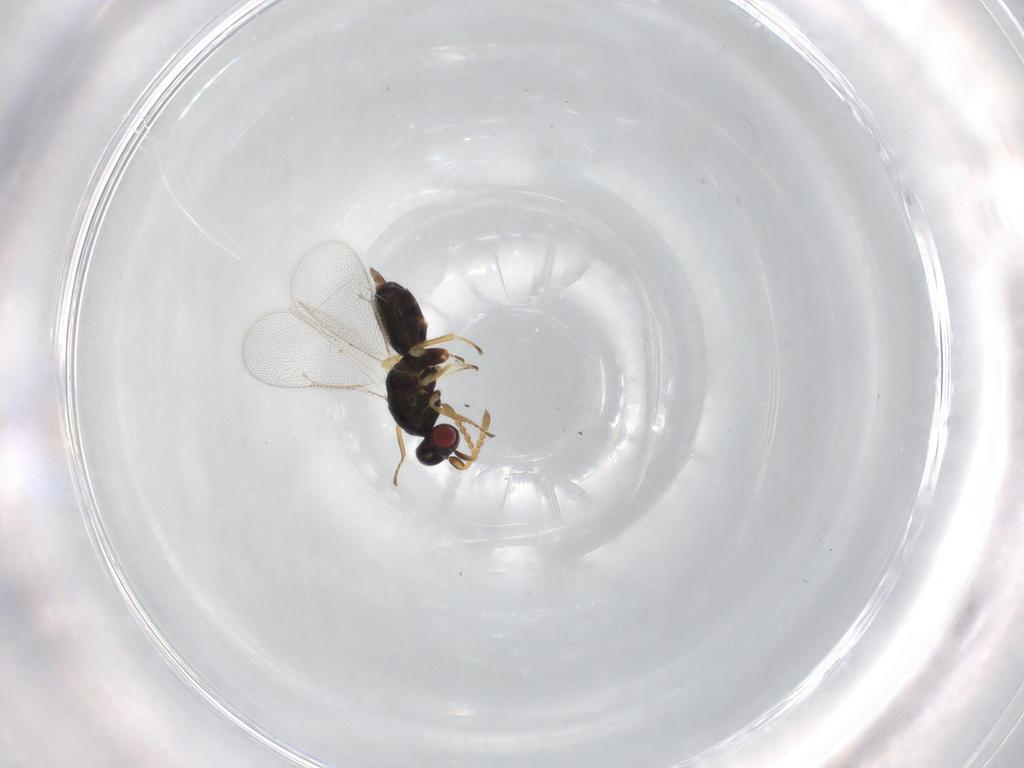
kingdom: Animalia
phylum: Arthropoda
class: Insecta
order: Hymenoptera
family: Eulophidae
